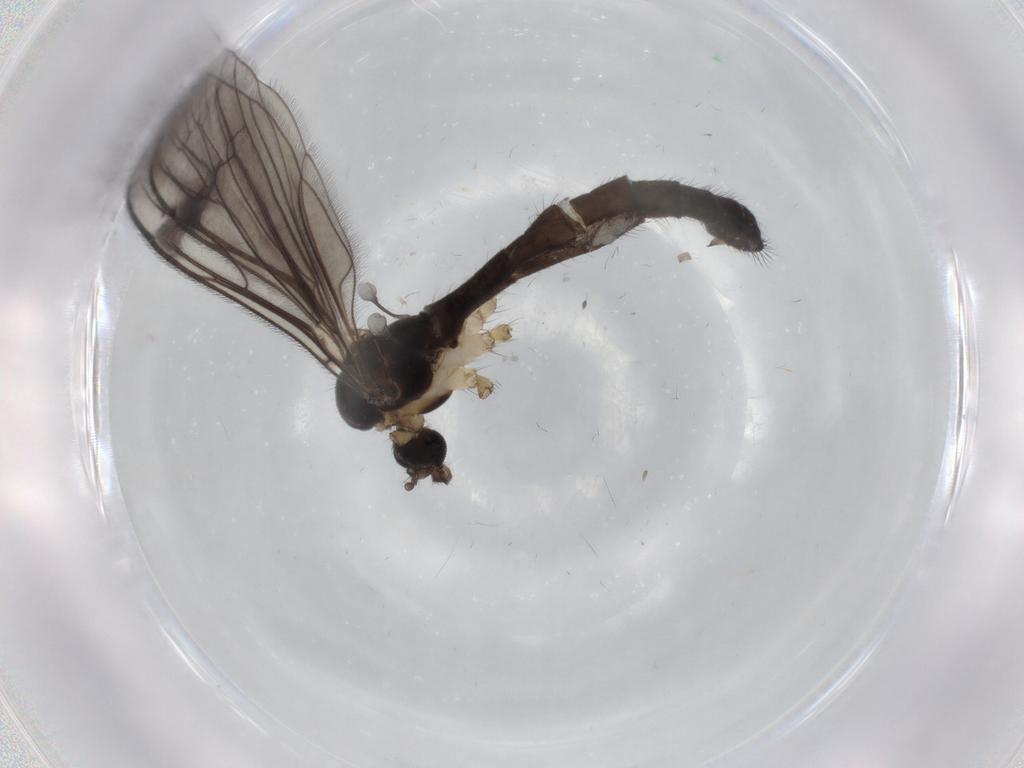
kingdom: Animalia
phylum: Arthropoda
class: Insecta
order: Diptera
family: Limoniidae
